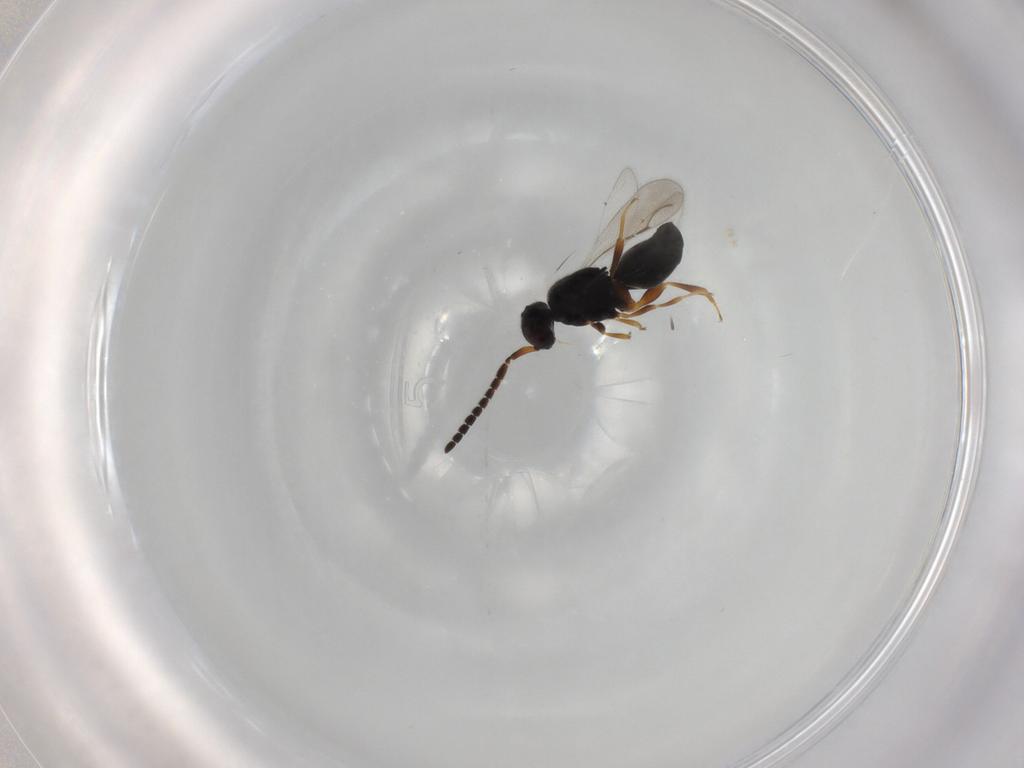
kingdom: Animalia
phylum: Arthropoda
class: Insecta
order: Hymenoptera
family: Ceraphronidae
